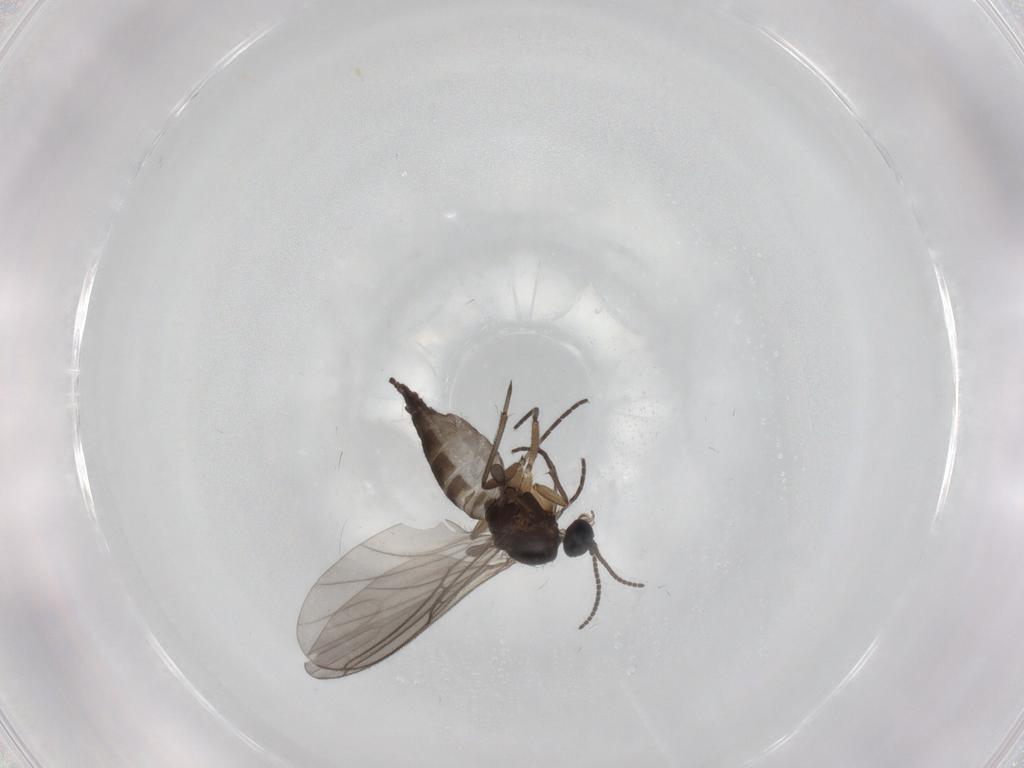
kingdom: Animalia
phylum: Arthropoda
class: Insecta
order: Diptera
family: Sciaridae
